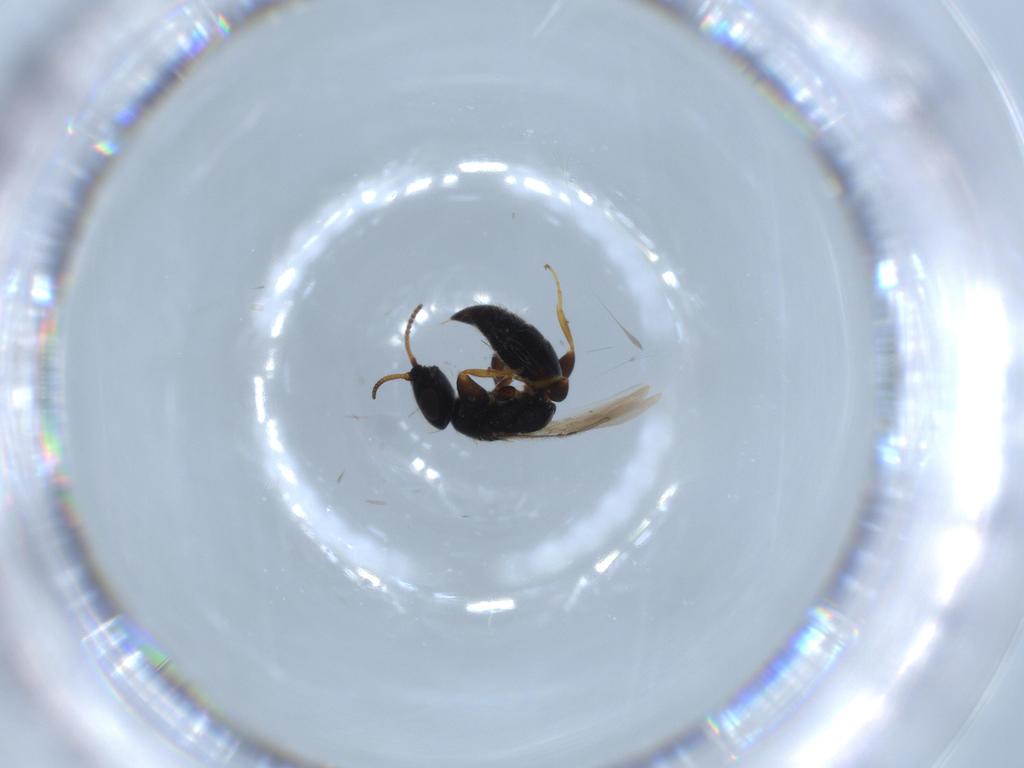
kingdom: Animalia
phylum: Arthropoda
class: Insecta
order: Hymenoptera
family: Bethylidae
